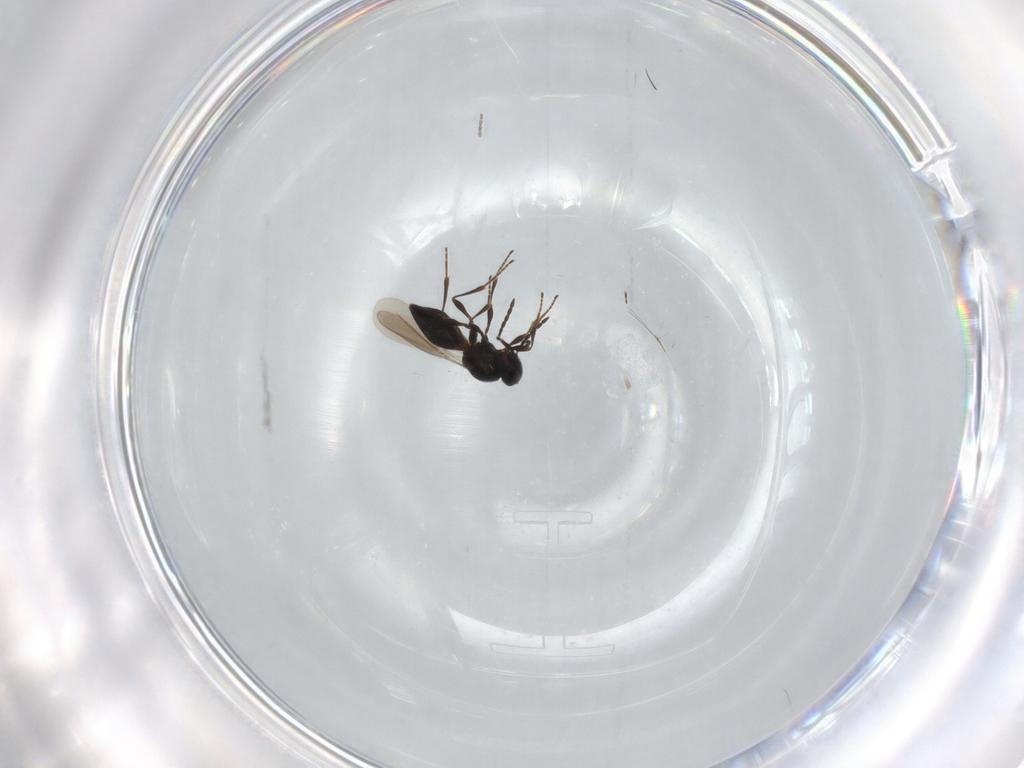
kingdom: Animalia
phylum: Arthropoda
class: Insecta
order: Hymenoptera
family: Platygastridae
